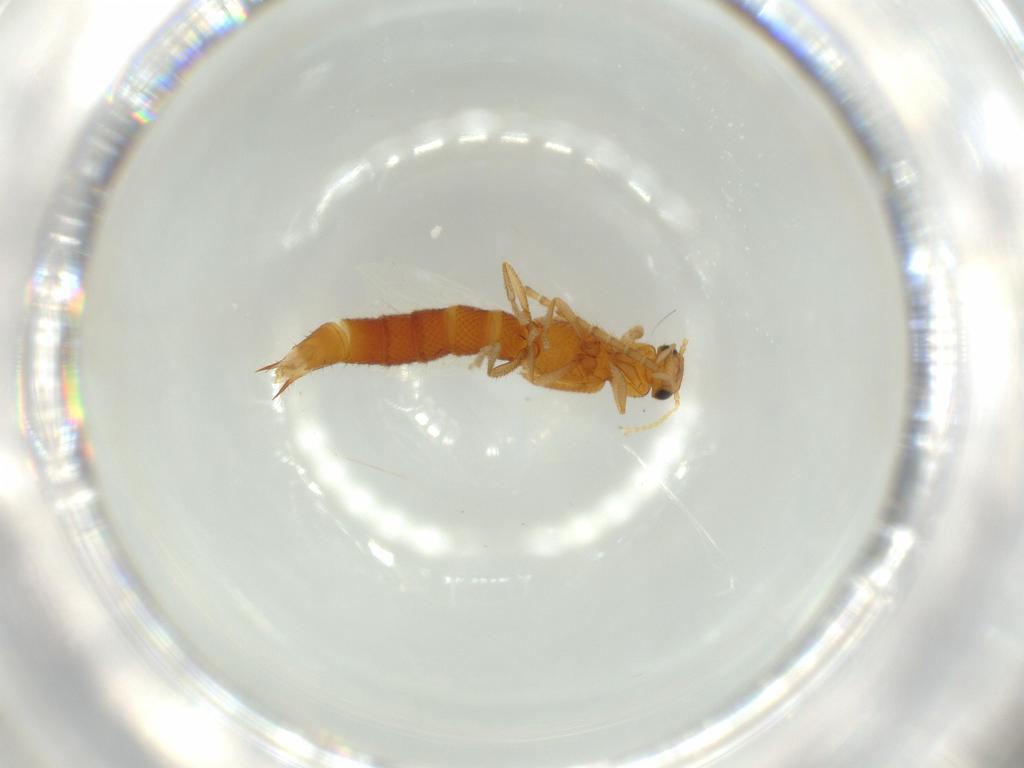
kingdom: Animalia
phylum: Arthropoda
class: Insecta
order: Coleoptera
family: Staphylinidae
